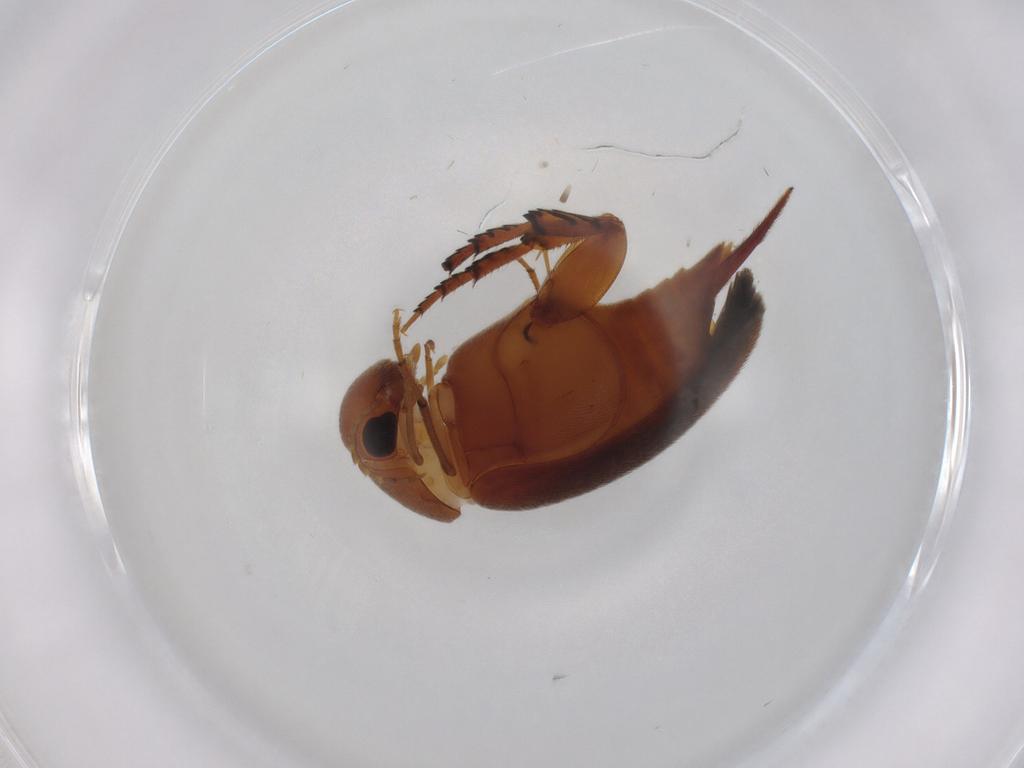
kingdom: Animalia
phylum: Arthropoda
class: Insecta
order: Coleoptera
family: Mordellidae
